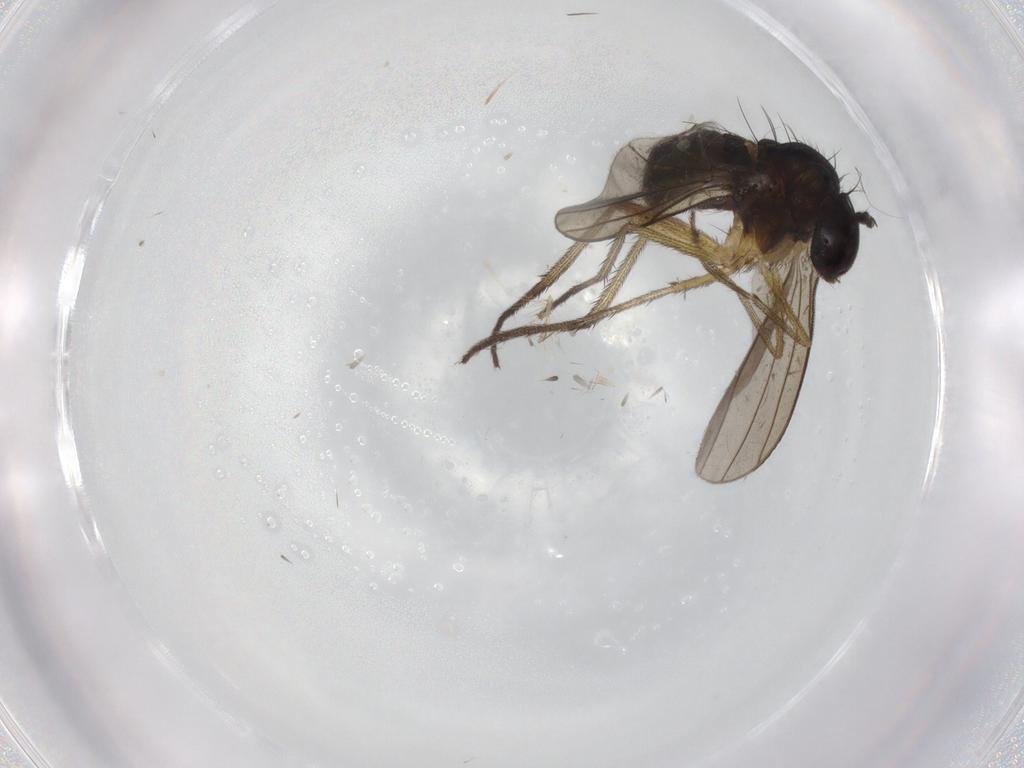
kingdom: Animalia
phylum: Arthropoda
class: Insecta
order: Diptera
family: Dolichopodidae
